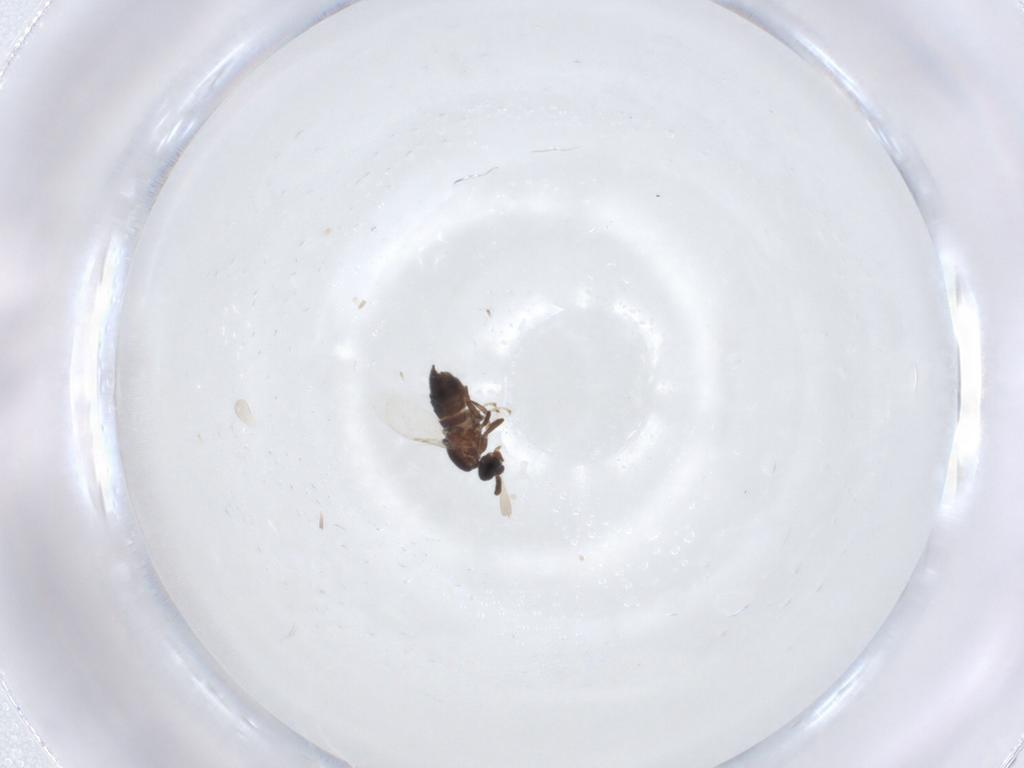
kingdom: Animalia
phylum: Arthropoda
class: Insecta
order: Diptera
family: Scatopsidae
